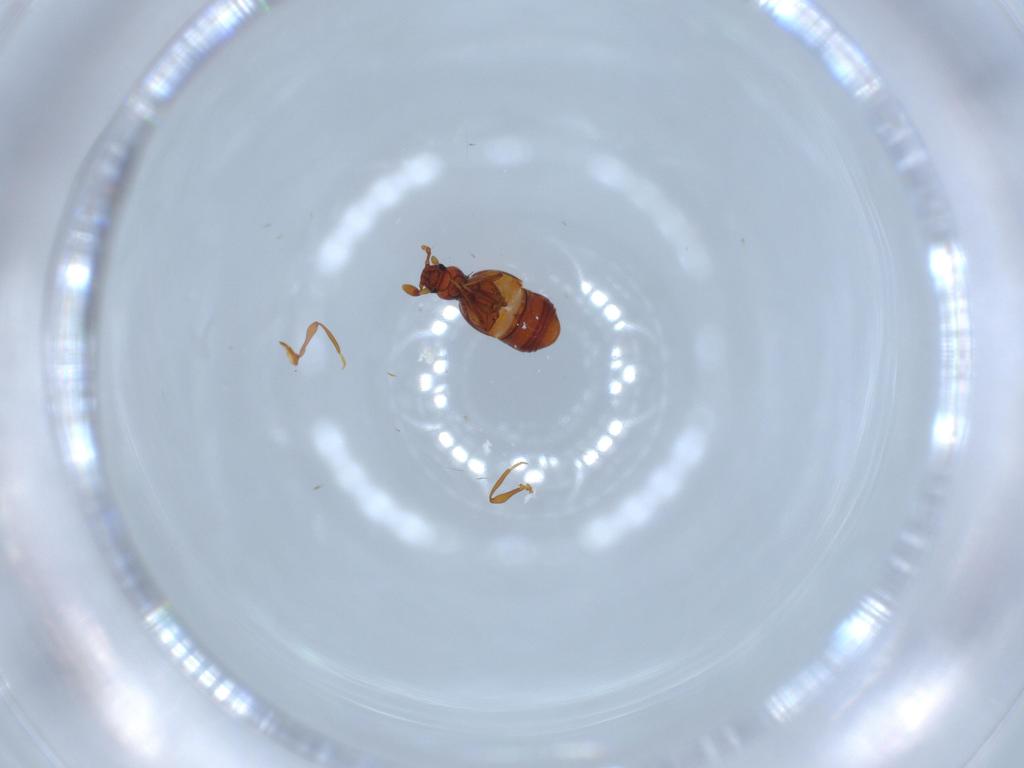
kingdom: Animalia
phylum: Arthropoda
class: Insecta
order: Coleoptera
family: Staphylinidae
